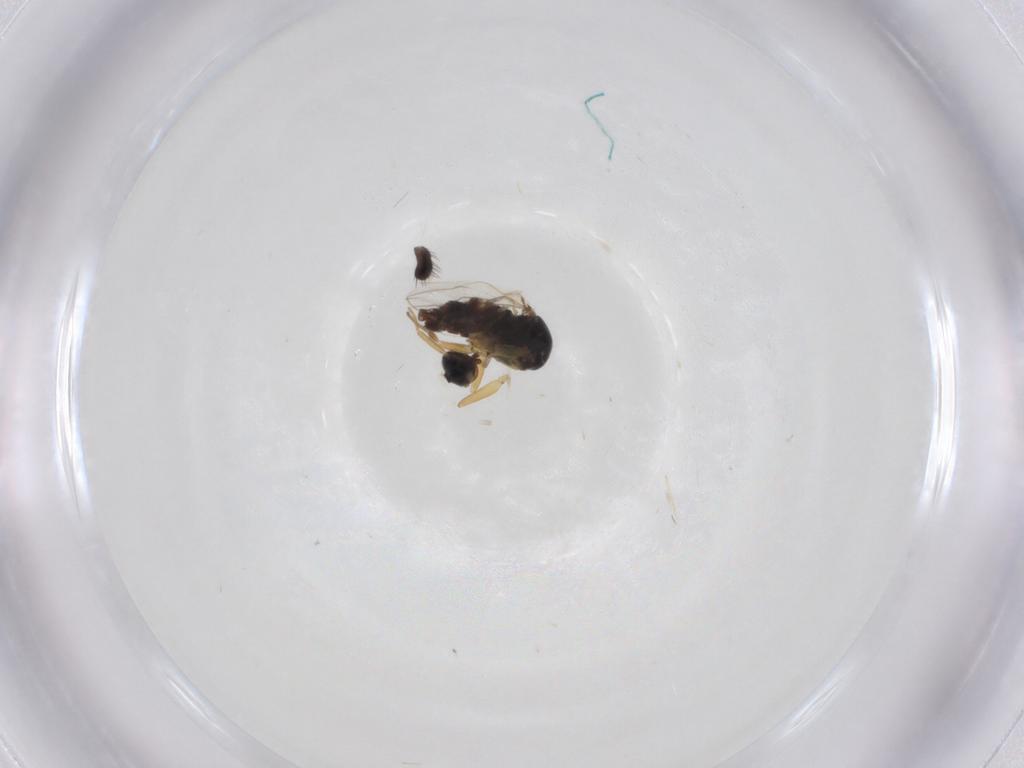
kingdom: Animalia
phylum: Arthropoda
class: Insecta
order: Diptera
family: Hybotidae
